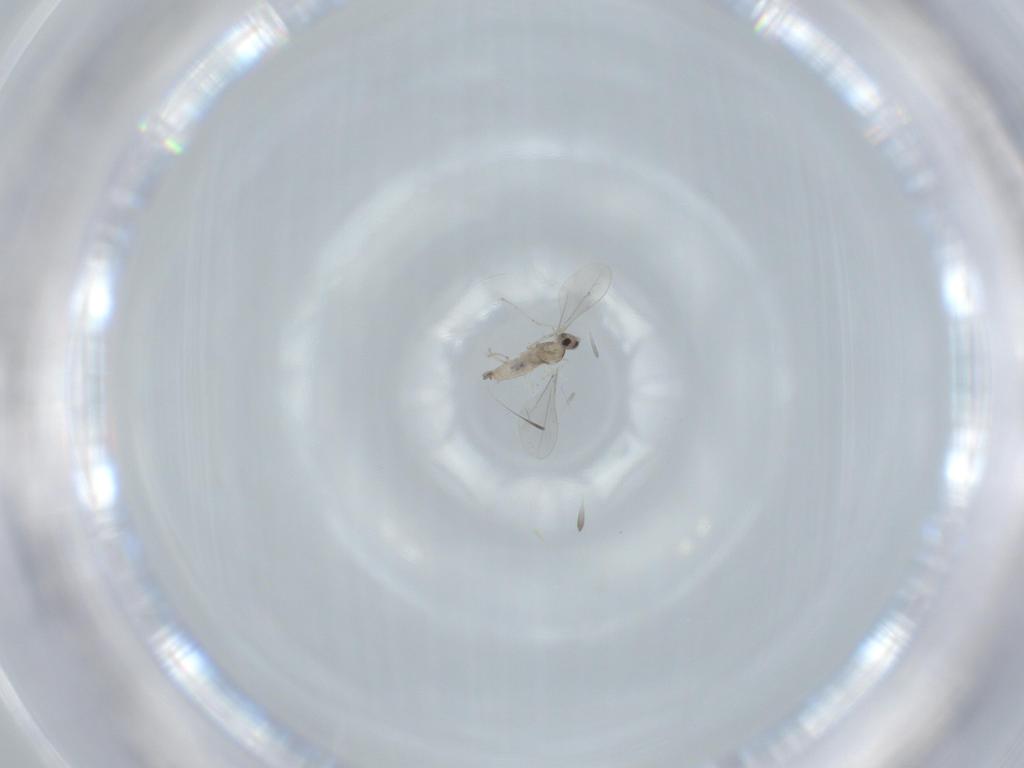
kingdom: Animalia
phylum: Arthropoda
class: Insecta
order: Diptera
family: Cecidomyiidae
